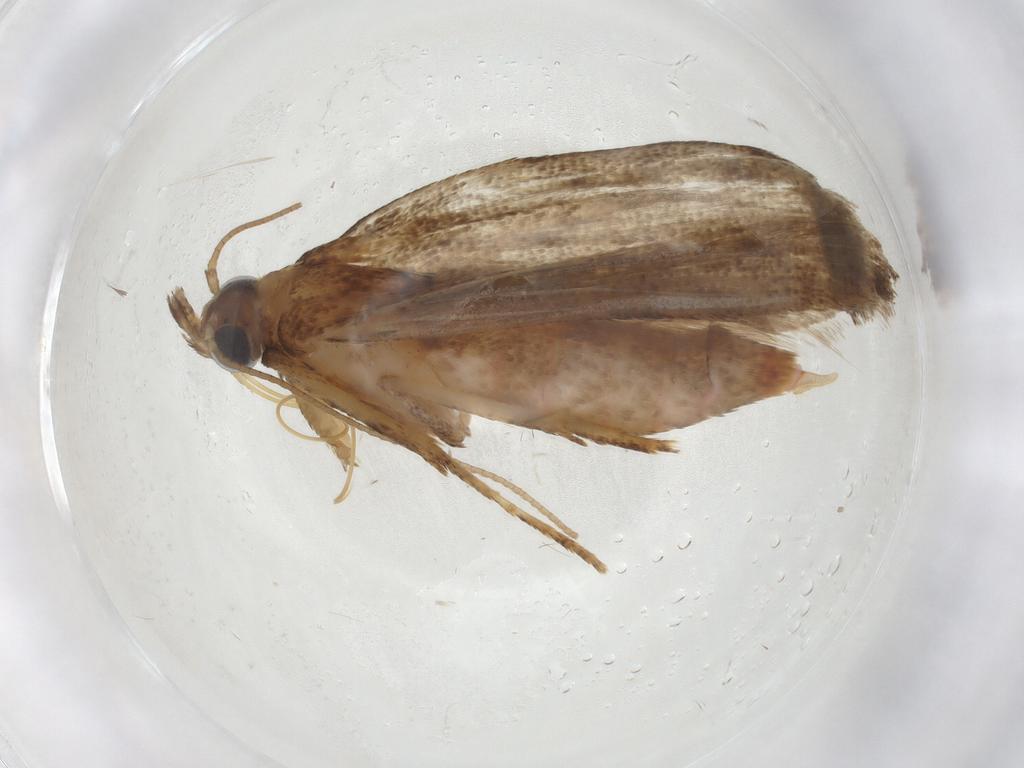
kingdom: Animalia
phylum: Arthropoda
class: Insecta
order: Lepidoptera
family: Pyralidae
